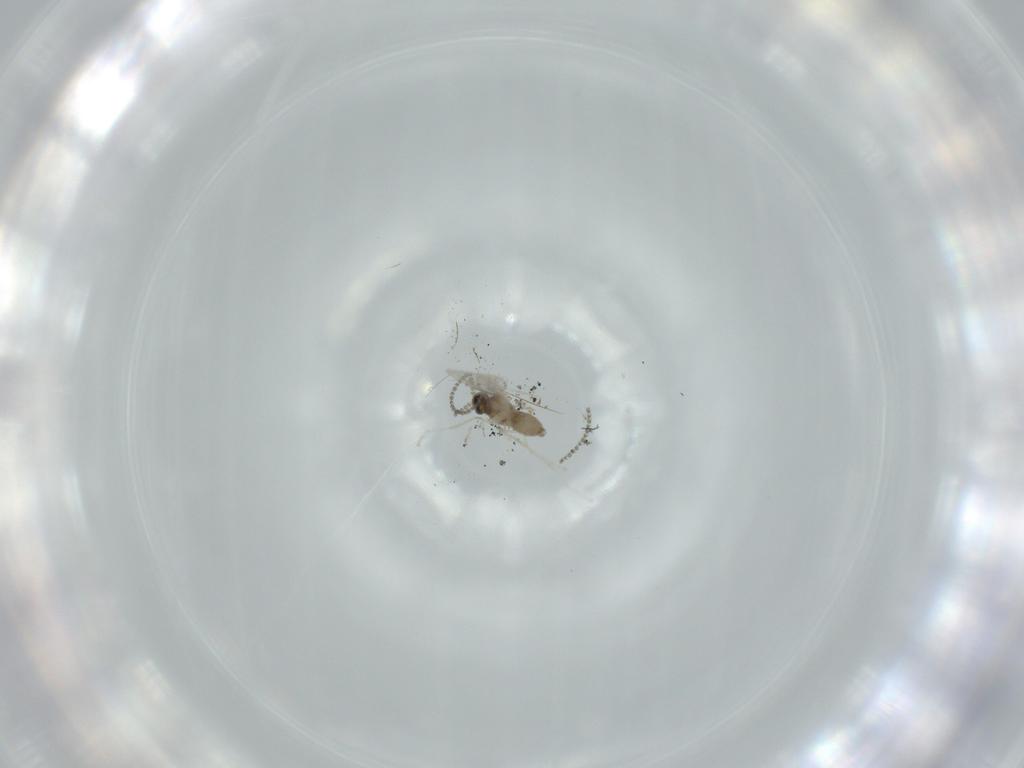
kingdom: Animalia
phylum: Arthropoda
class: Insecta
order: Diptera
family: Cecidomyiidae
